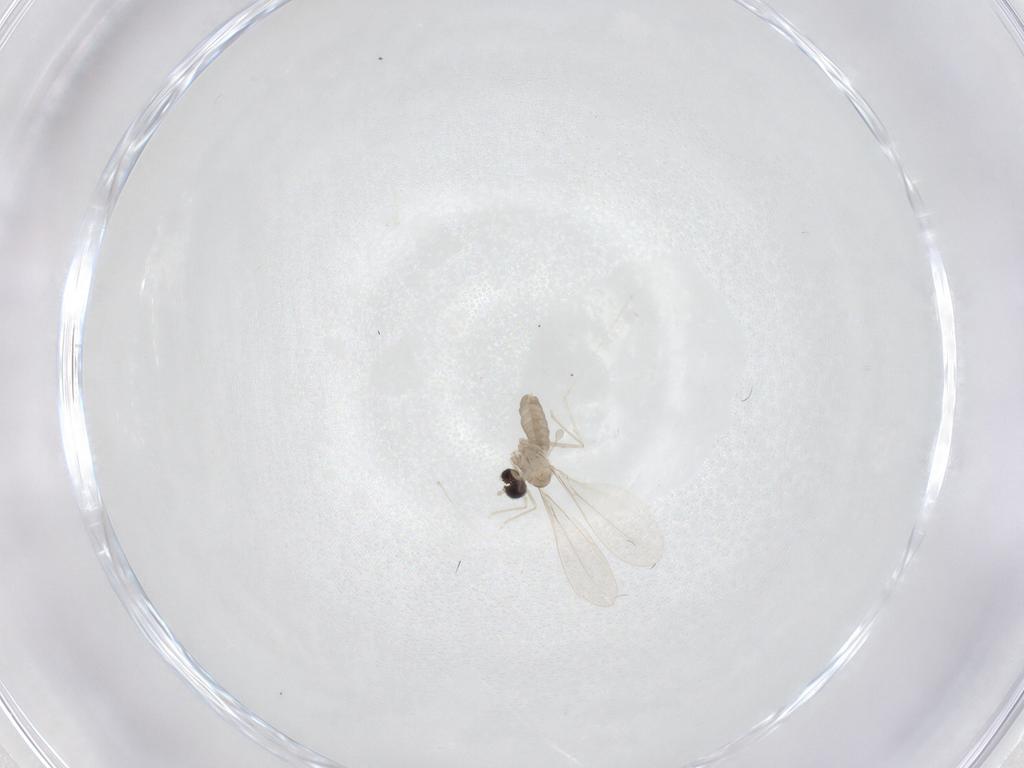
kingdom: Animalia
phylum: Arthropoda
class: Insecta
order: Diptera
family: Cecidomyiidae
